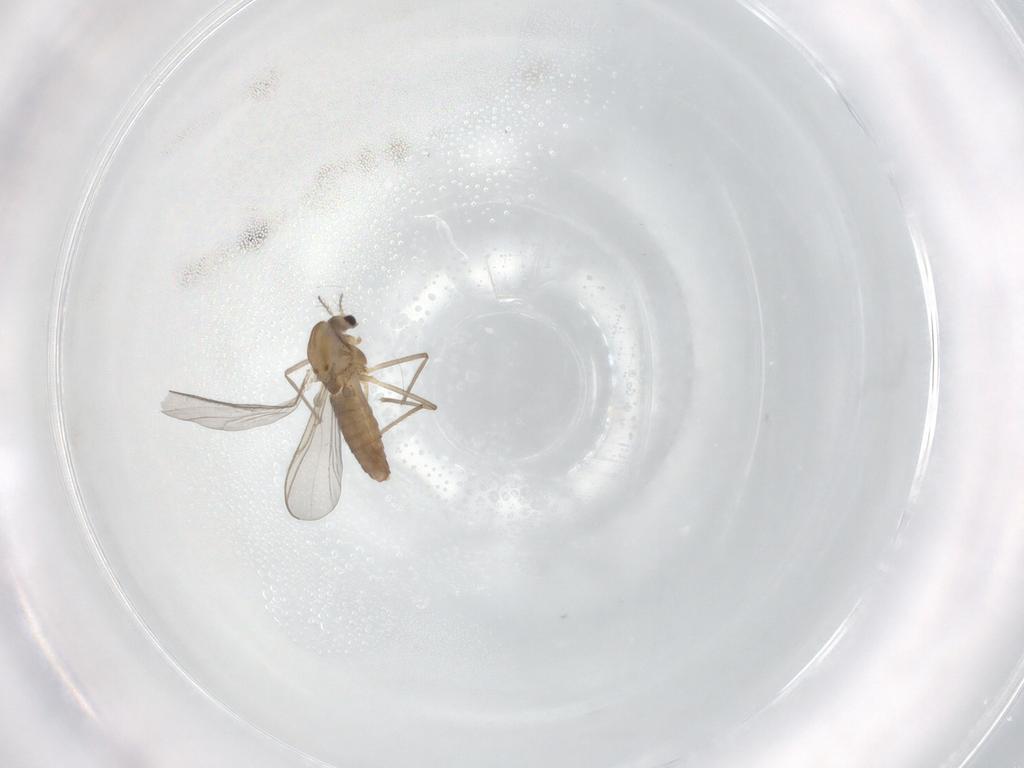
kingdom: Animalia
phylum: Arthropoda
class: Insecta
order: Diptera
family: Chironomidae
